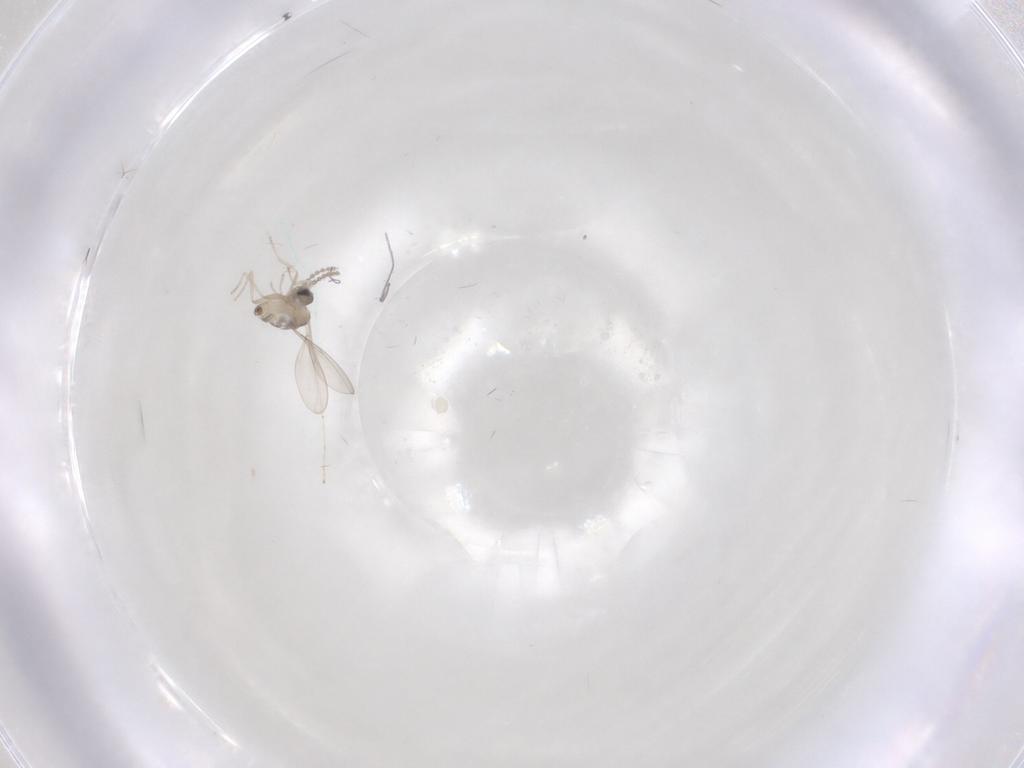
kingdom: Animalia
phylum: Arthropoda
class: Insecta
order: Diptera
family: Cecidomyiidae
